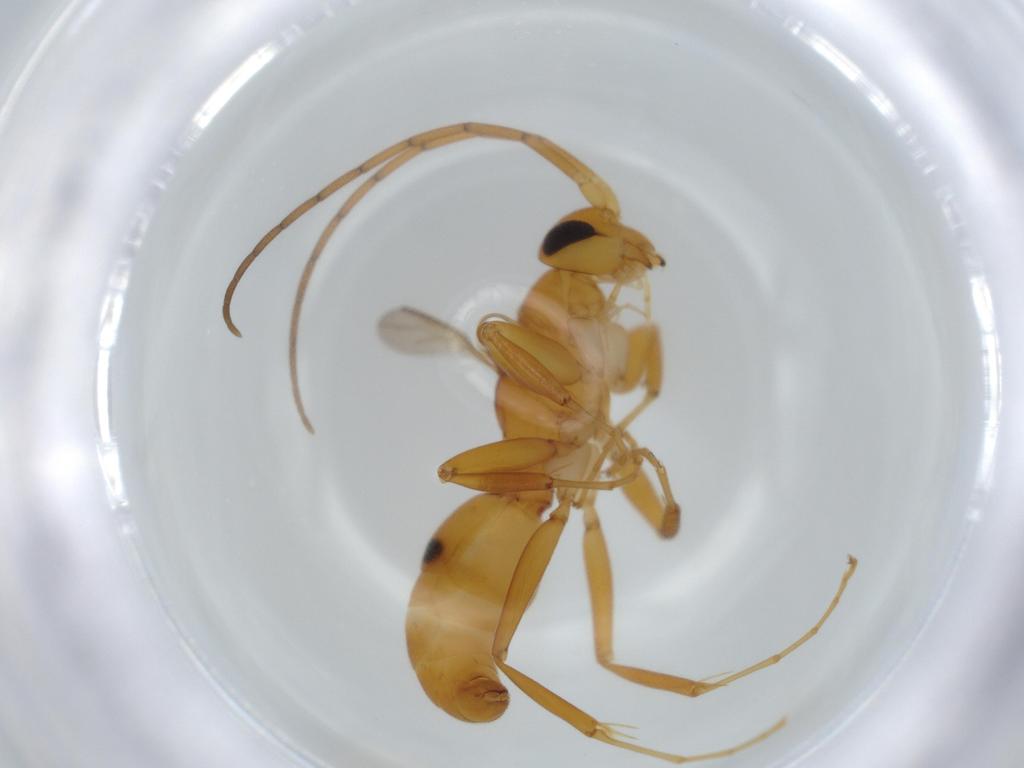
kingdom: Animalia
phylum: Arthropoda
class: Insecta
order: Hymenoptera
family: Rhopalosomatidae
